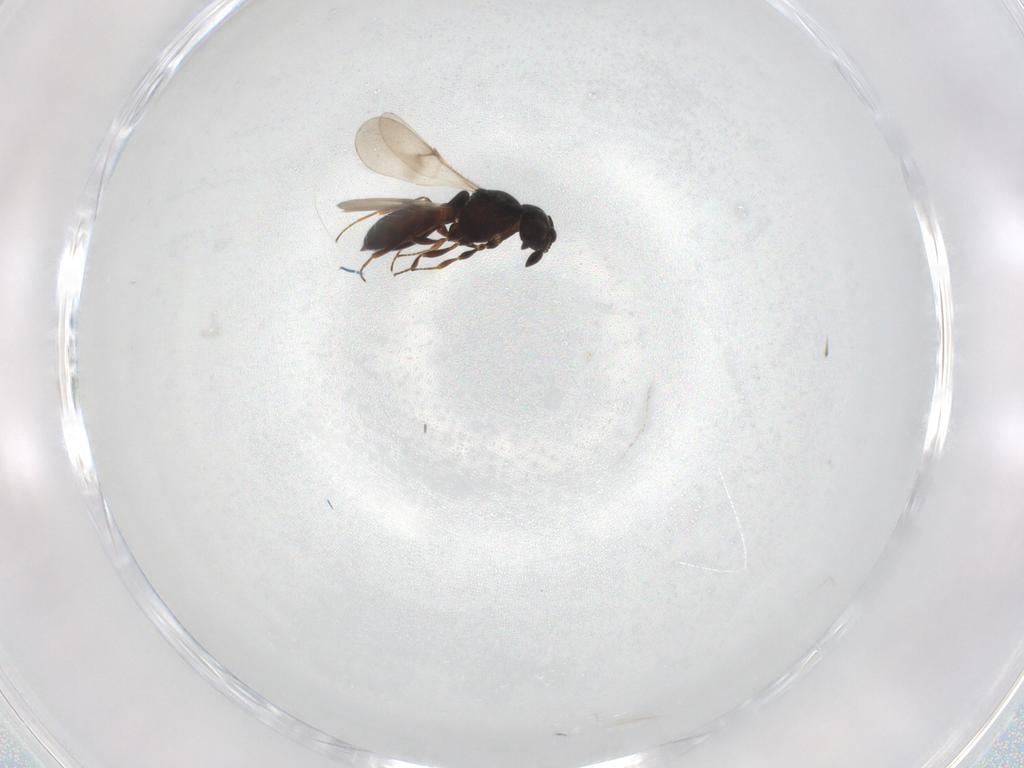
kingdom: Animalia
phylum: Arthropoda
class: Insecta
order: Hymenoptera
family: Scelionidae
